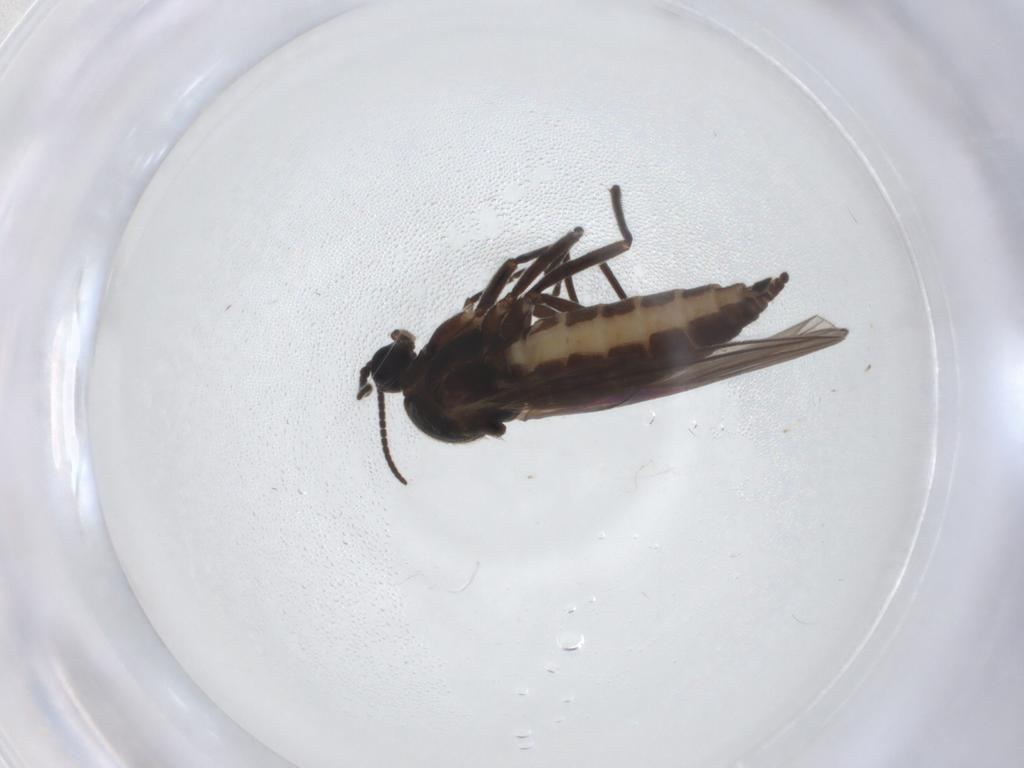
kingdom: Animalia
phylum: Arthropoda
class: Insecta
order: Diptera
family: Sciaridae
